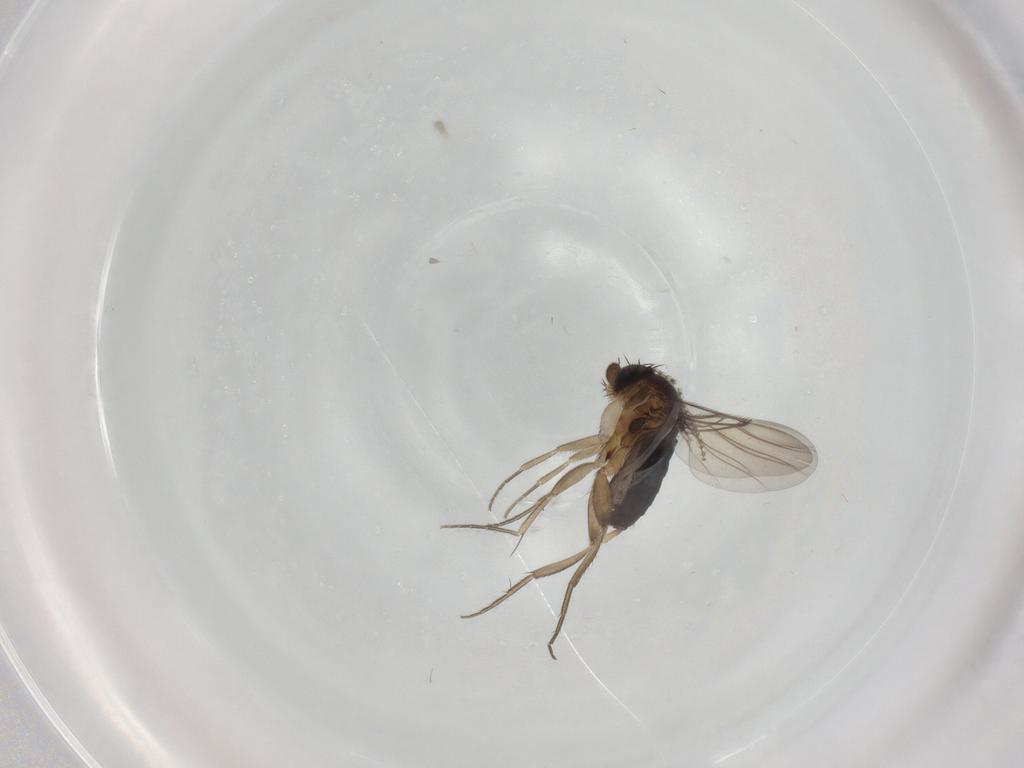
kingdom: Animalia
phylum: Arthropoda
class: Insecta
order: Diptera
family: Phoridae
